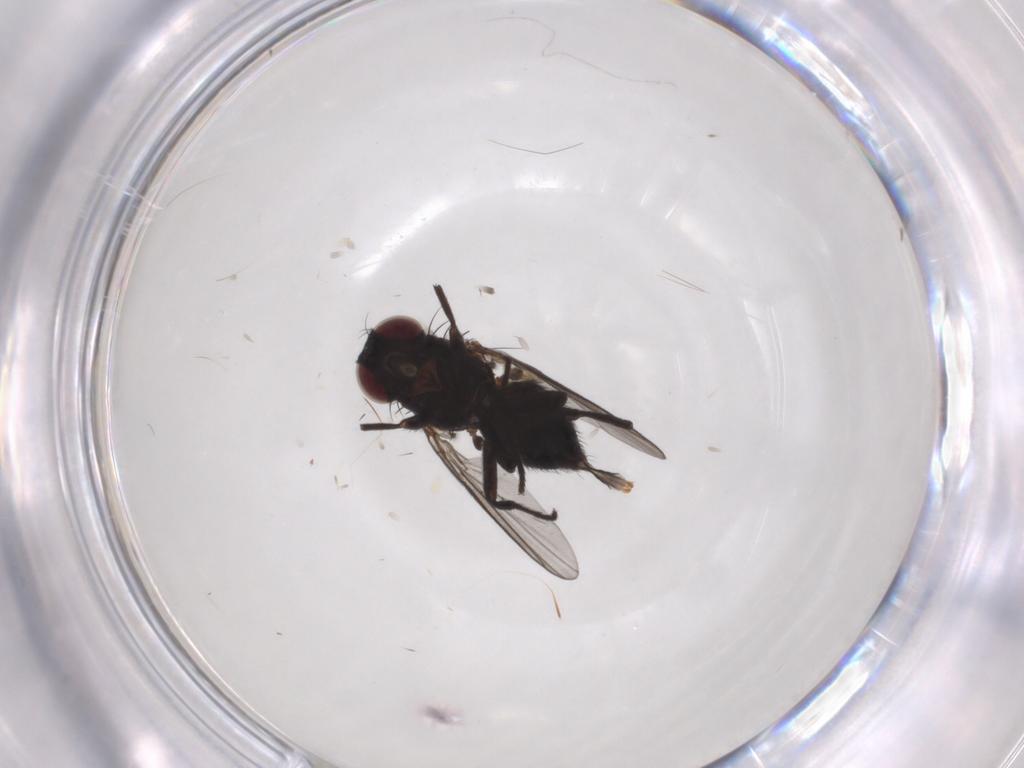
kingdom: Animalia
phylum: Arthropoda
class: Insecta
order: Diptera
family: Agromyzidae
